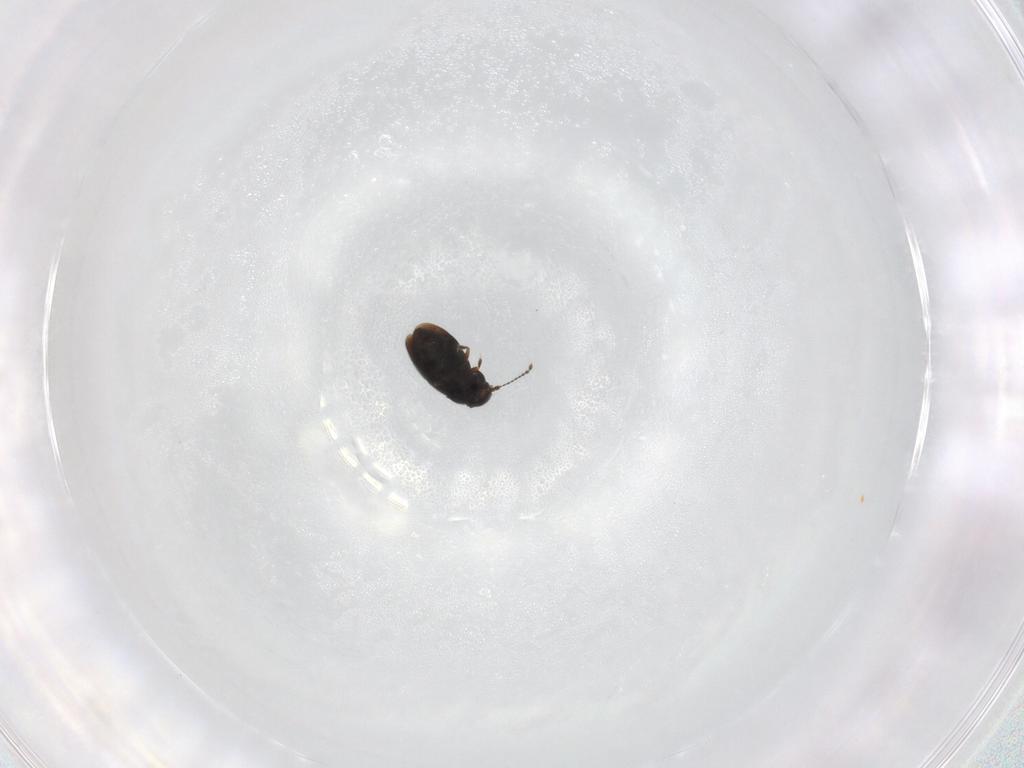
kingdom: Animalia
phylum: Arthropoda
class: Insecta
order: Coleoptera
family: Ptiliidae
